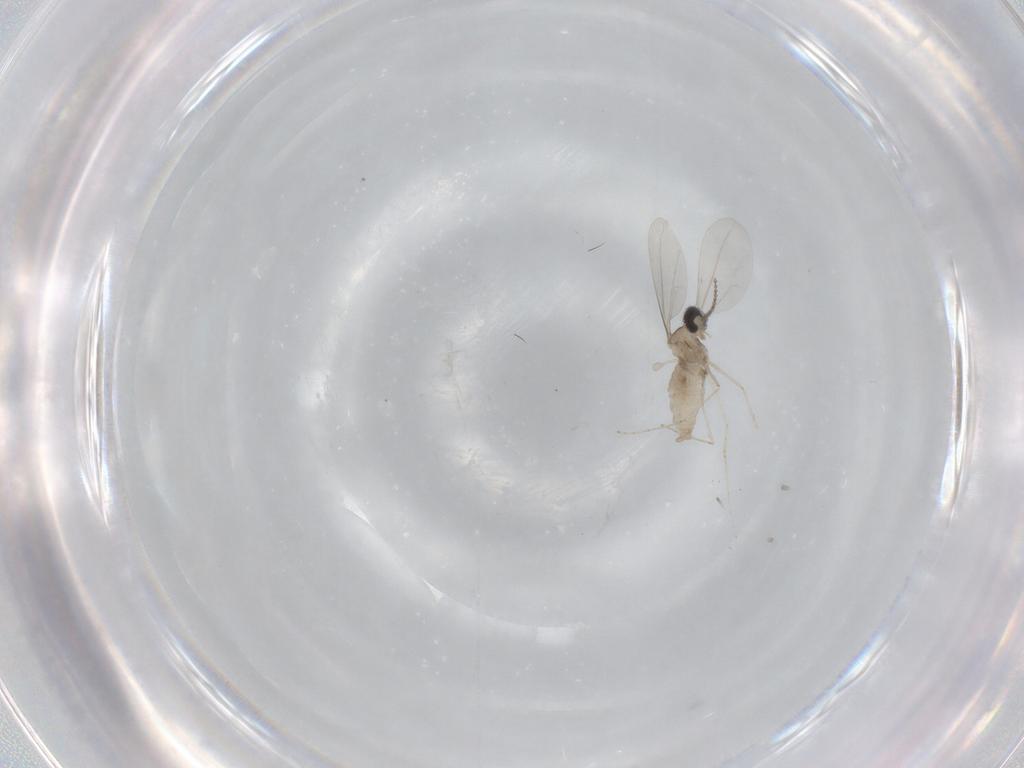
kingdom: Animalia
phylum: Arthropoda
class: Insecta
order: Diptera
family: Cecidomyiidae
